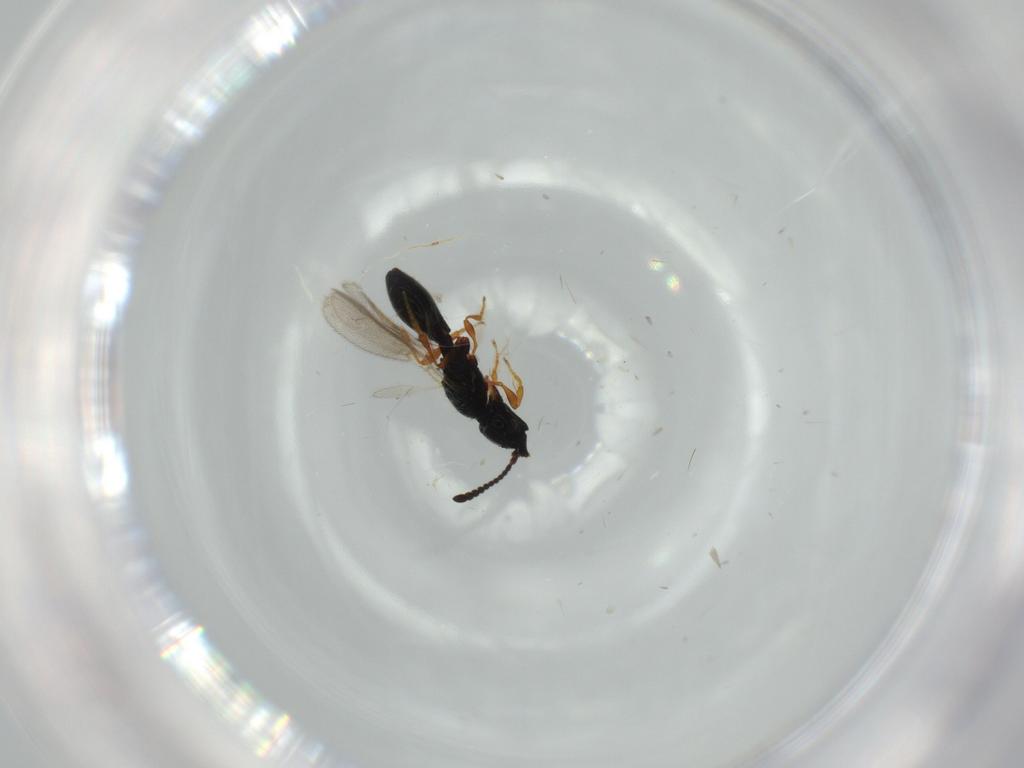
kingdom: Animalia
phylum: Arthropoda
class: Insecta
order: Hymenoptera
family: Diapriidae
